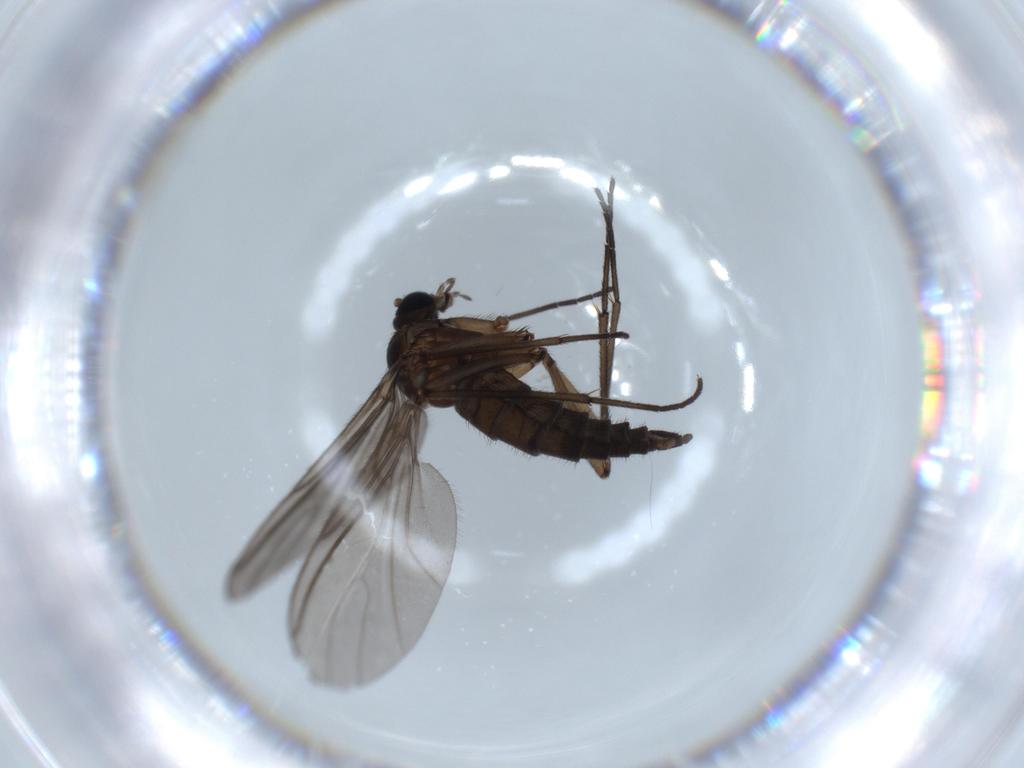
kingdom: Animalia
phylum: Arthropoda
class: Insecta
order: Diptera
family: Sciaridae
